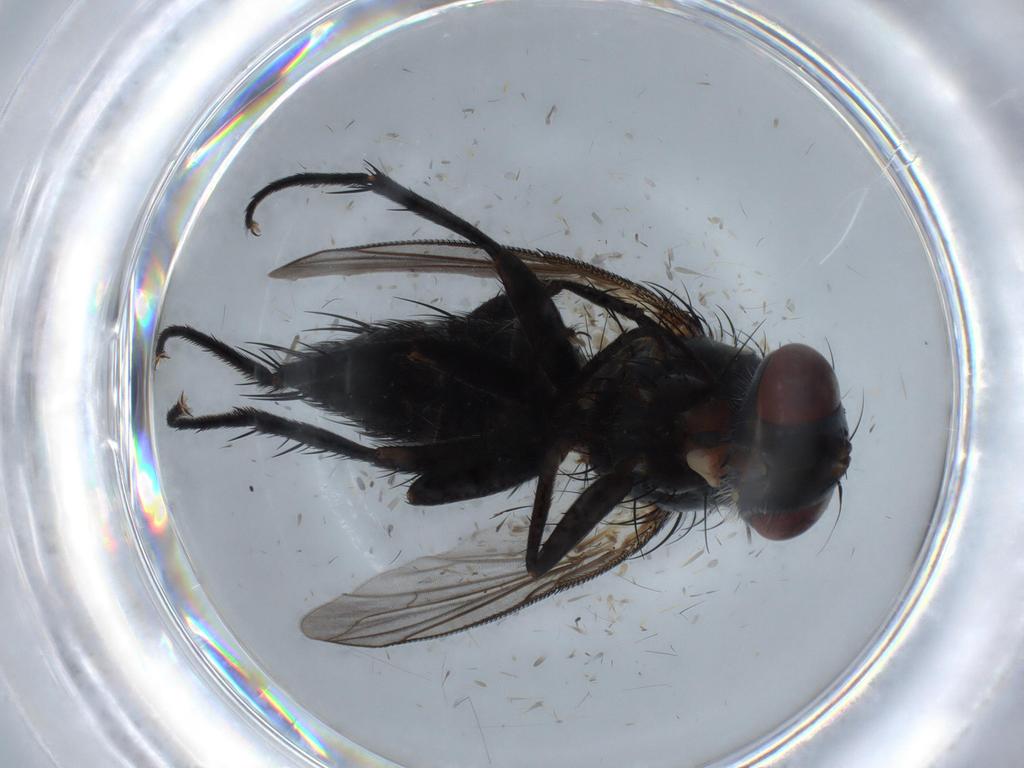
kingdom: Animalia
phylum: Arthropoda
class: Insecta
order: Diptera
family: Tachinidae
